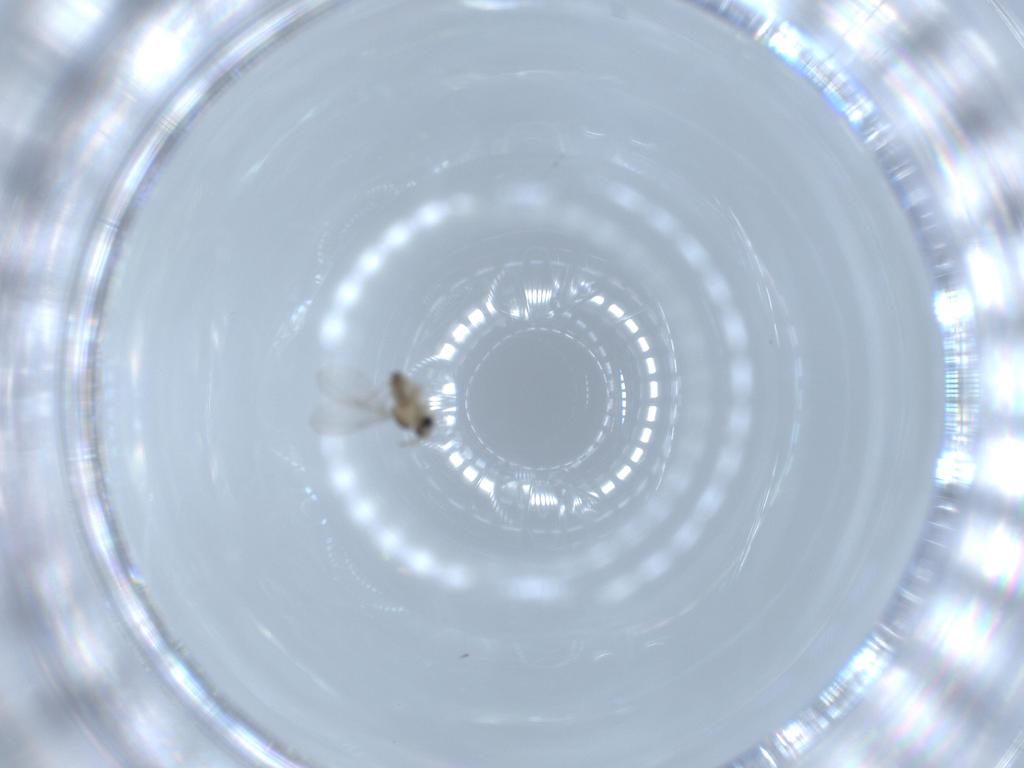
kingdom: Animalia
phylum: Arthropoda
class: Insecta
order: Diptera
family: Cecidomyiidae
